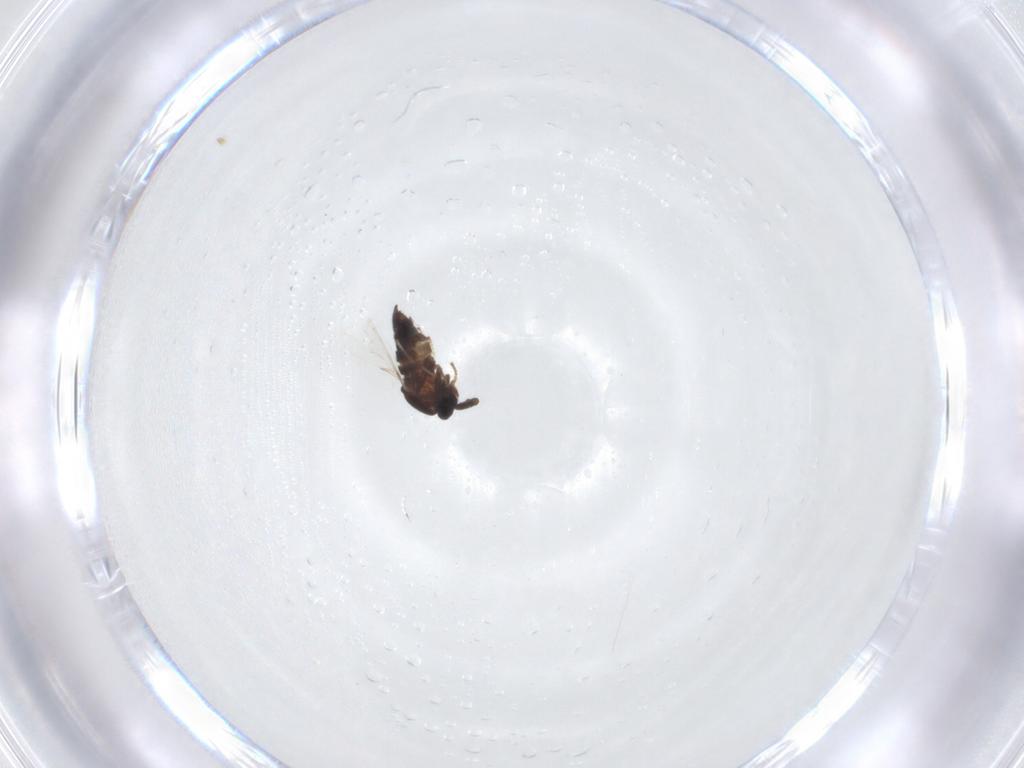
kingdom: Animalia
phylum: Arthropoda
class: Insecta
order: Diptera
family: Scatopsidae
